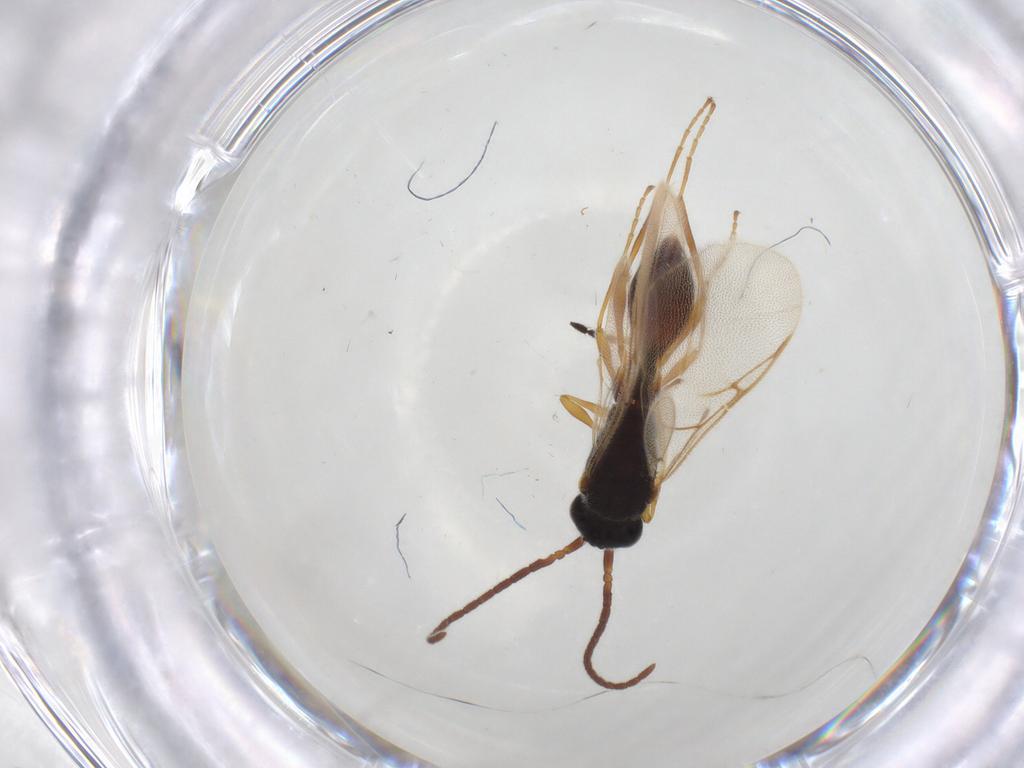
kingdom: Animalia
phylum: Arthropoda
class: Insecta
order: Hymenoptera
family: Diapriidae
